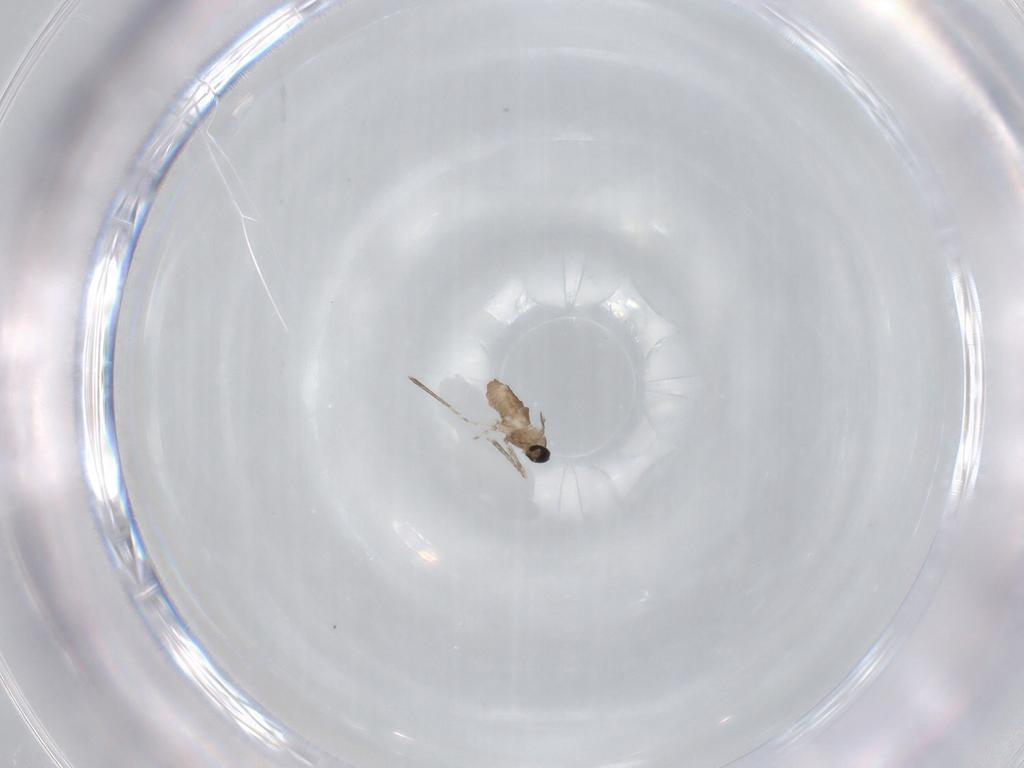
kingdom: Animalia
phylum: Arthropoda
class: Insecta
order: Diptera
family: Cecidomyiidae
